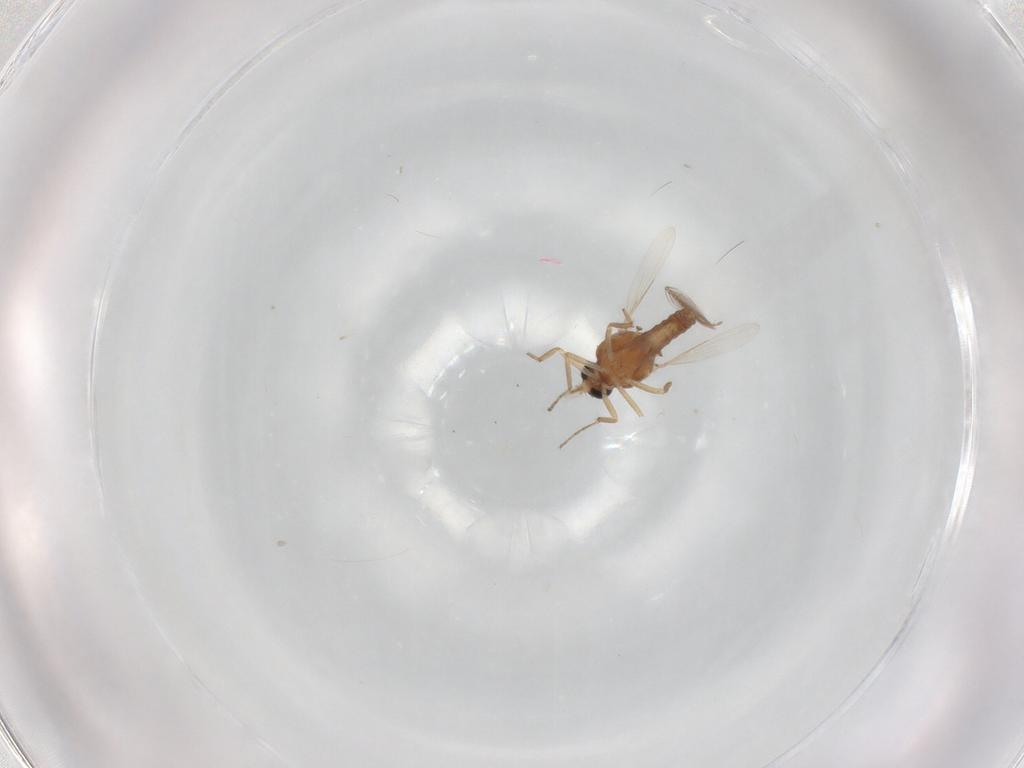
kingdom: Animalia
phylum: Arthropoda
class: Insecta
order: Diptera
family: Ceratopogonidae
